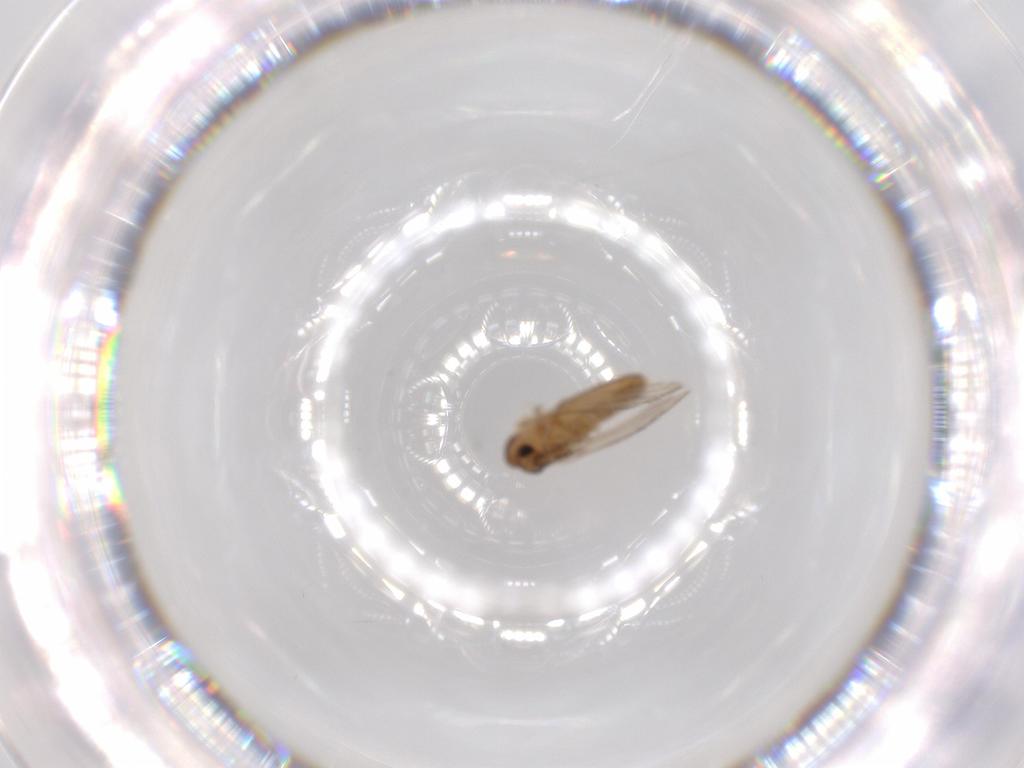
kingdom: Animalia
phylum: Arthropoda
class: Insecta
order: Diptera
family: Psychodidae
